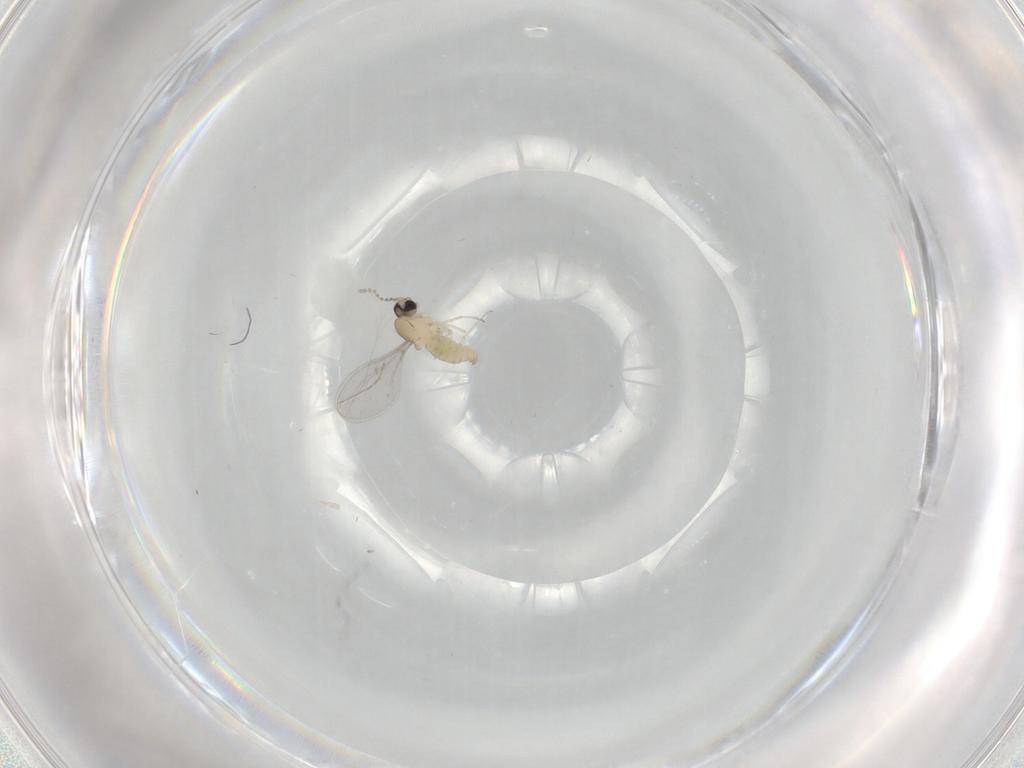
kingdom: Animalia
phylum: Arthropoda
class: Insecta
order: Diptera
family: Cecidomyiidae
